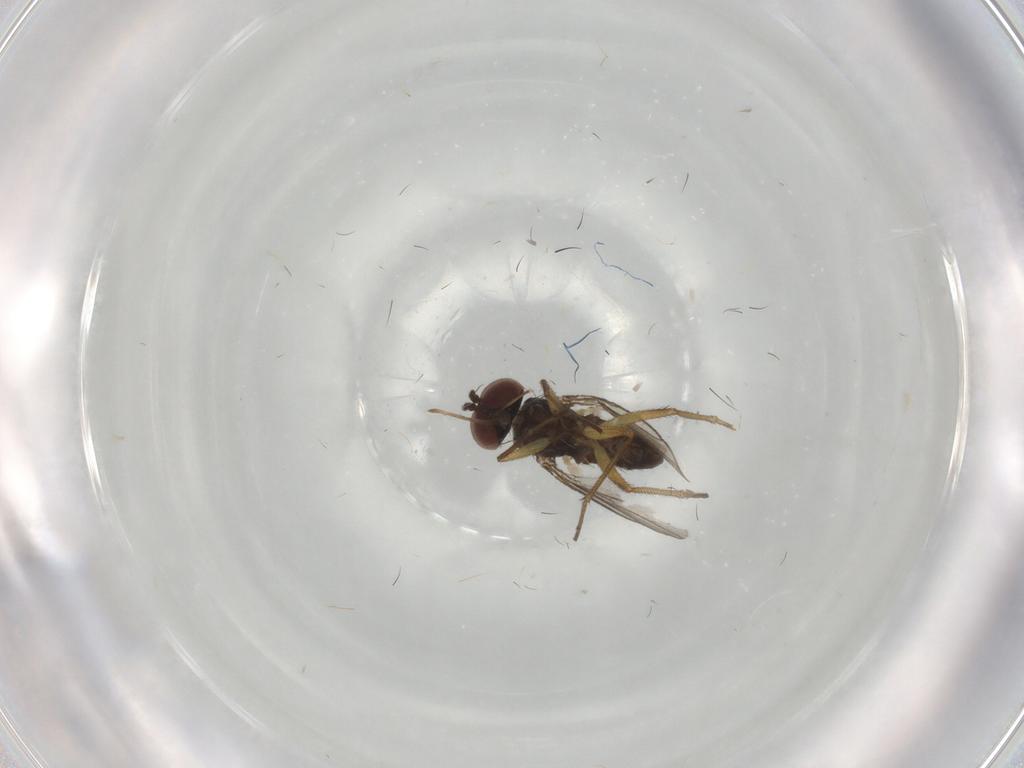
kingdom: Animalia
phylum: Arthropoda
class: Insecta
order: Diptera
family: Dolichopodidae
